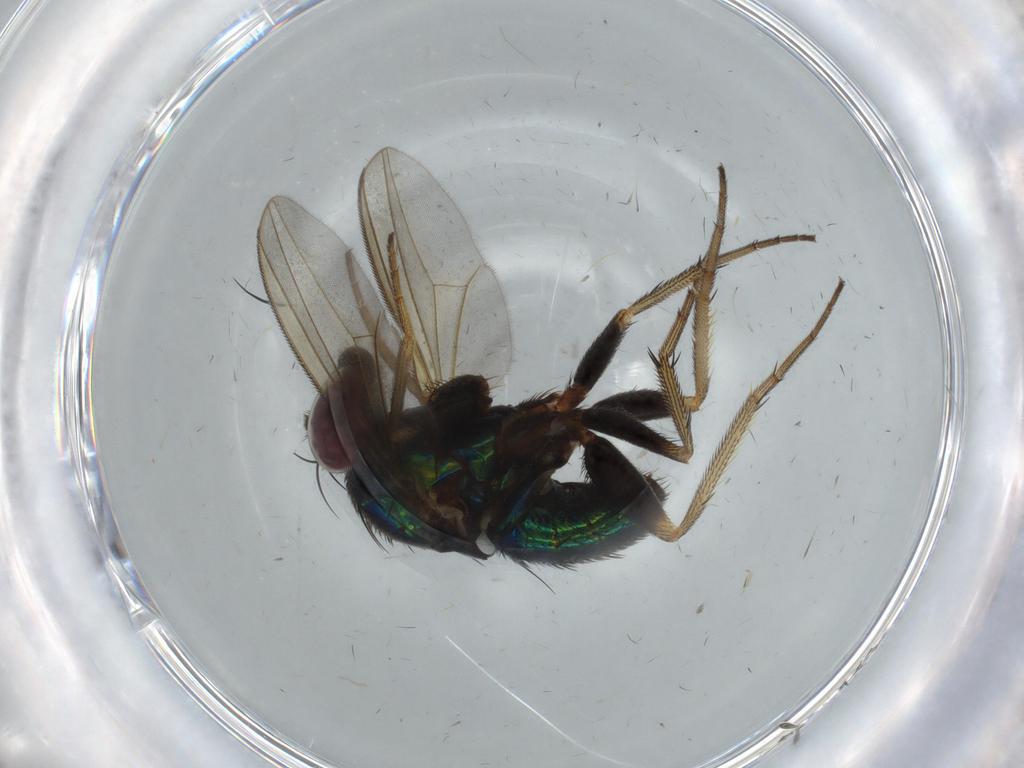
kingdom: Animalia
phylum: Arthropoda
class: Insecta
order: Diptera
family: Dolichopodidae
